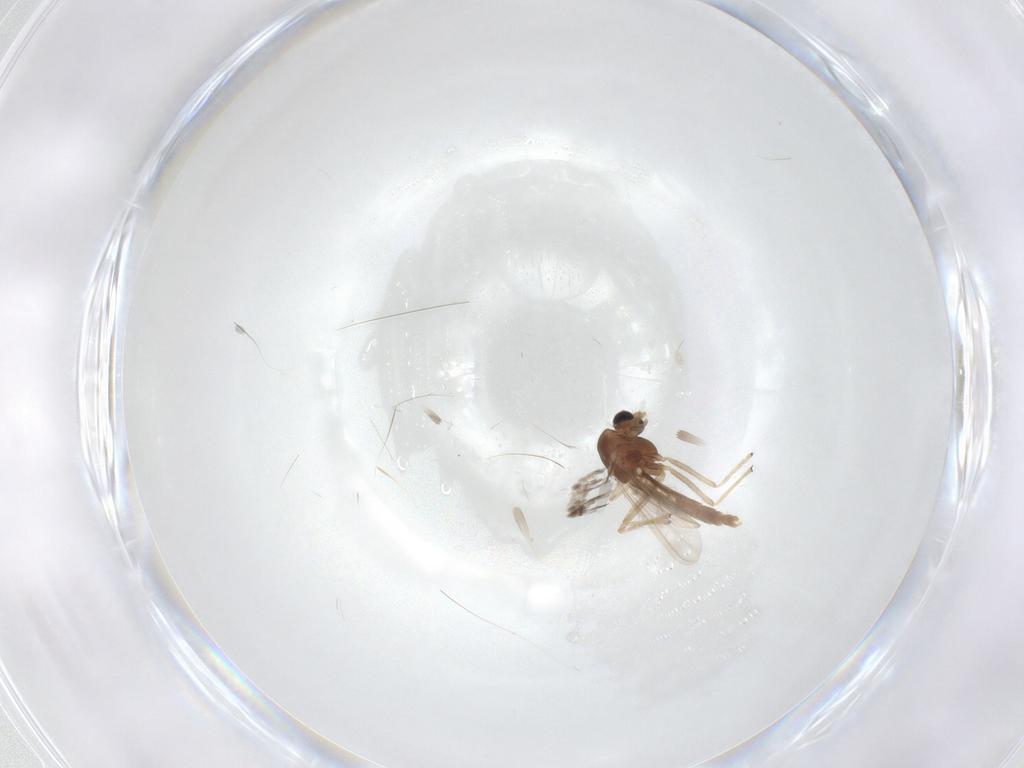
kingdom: Animalia
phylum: Arthropoda
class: Insecta
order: Diptera
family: Chironomidae
